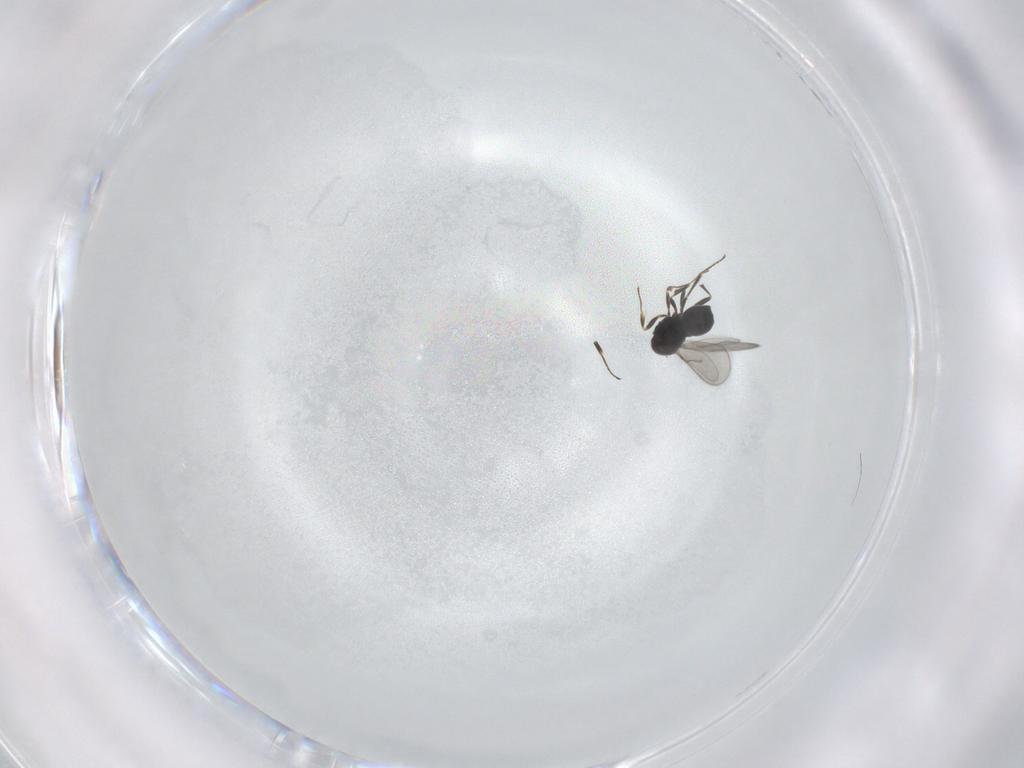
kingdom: Animalia
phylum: Arthropoda
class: Insecta
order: Hymenoptera
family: Scelionidae
